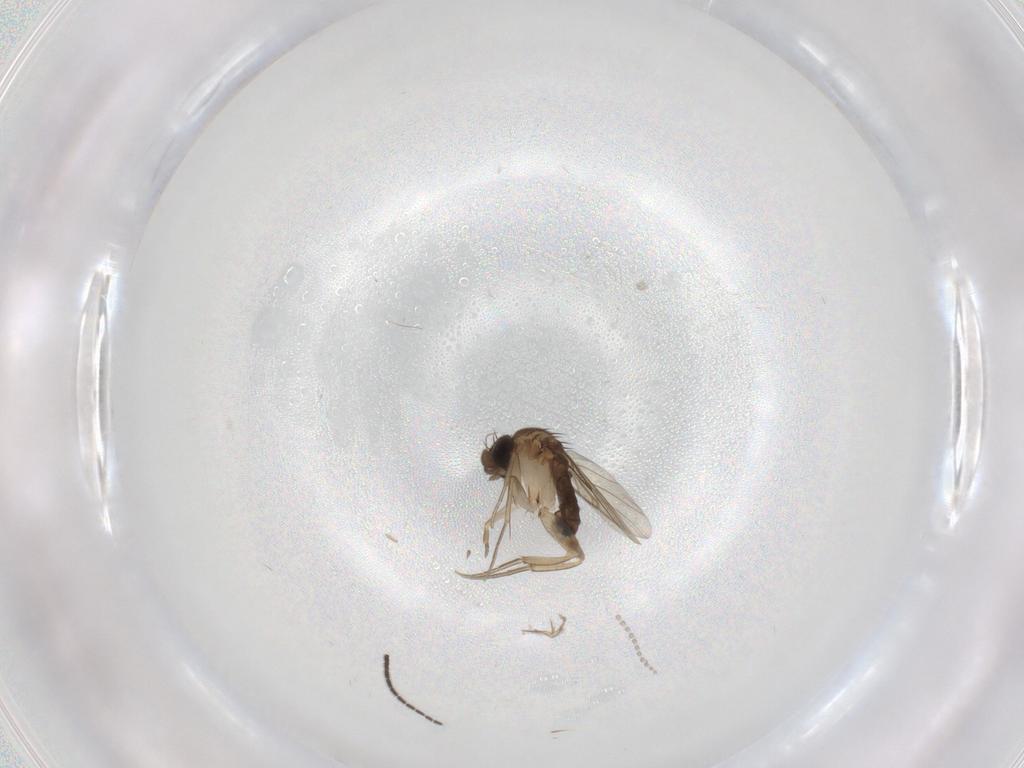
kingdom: Animalia
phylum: Arthropoda
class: Insecta
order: Diptera
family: Sciaridae
